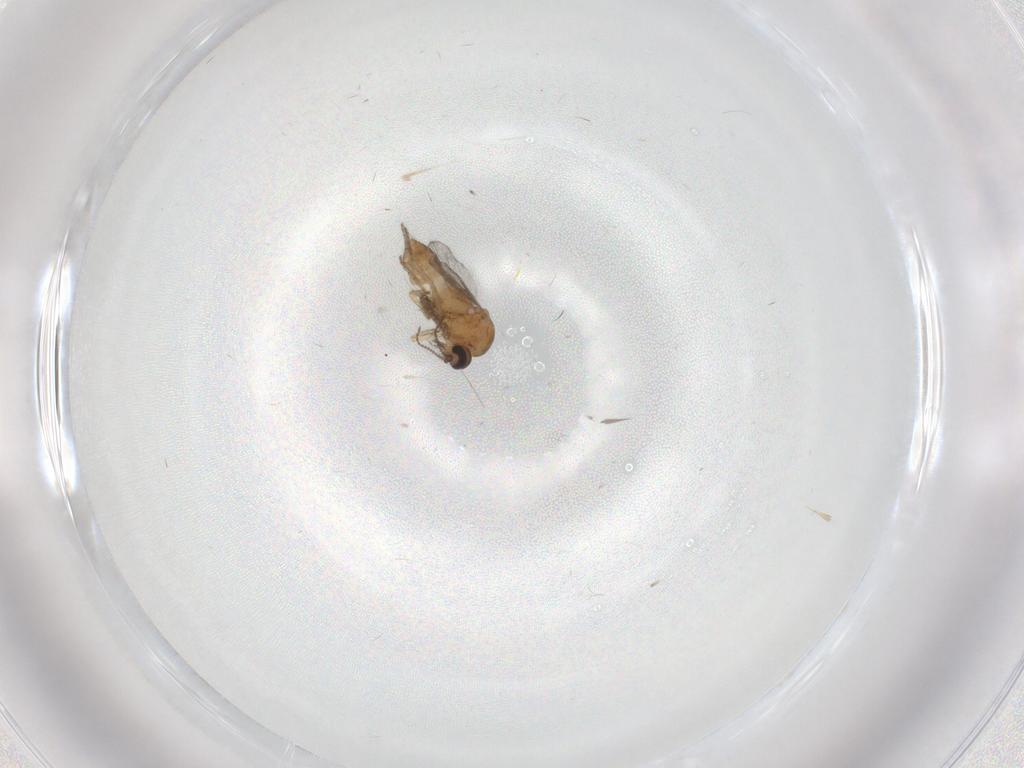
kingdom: Animalia
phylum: Arthropoda
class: Insecta
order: Diptera
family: Ceratopogonidae
